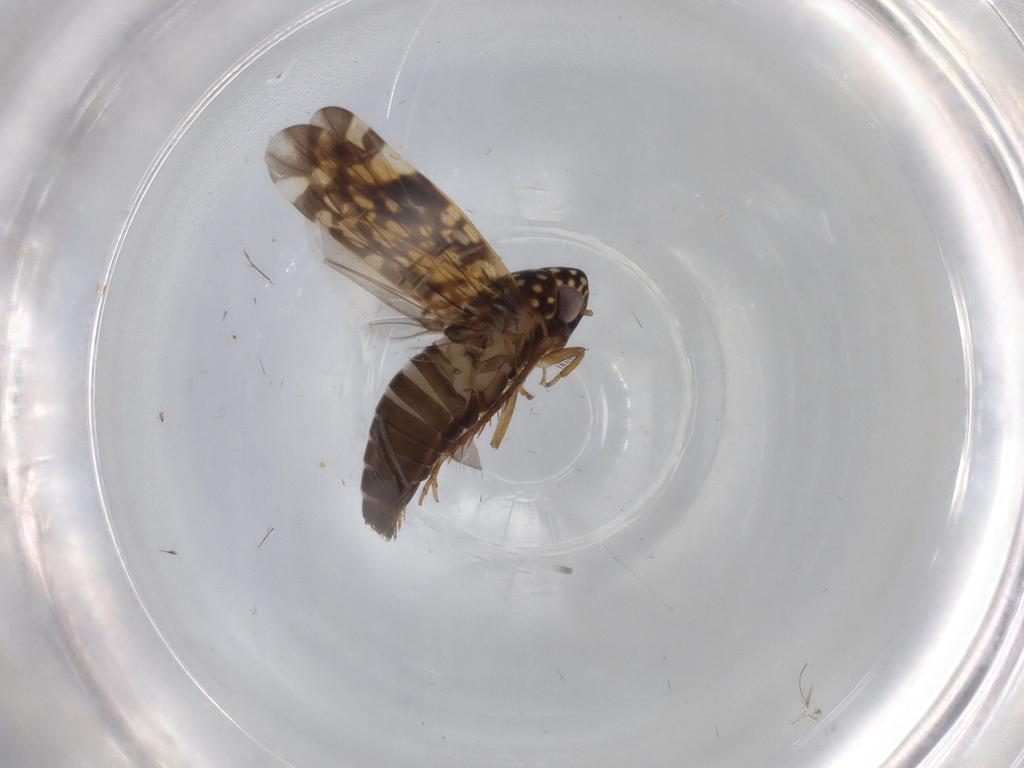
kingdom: Animalia
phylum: Arthropoda
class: Insecta
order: Hemiptera
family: Cicadellidae
